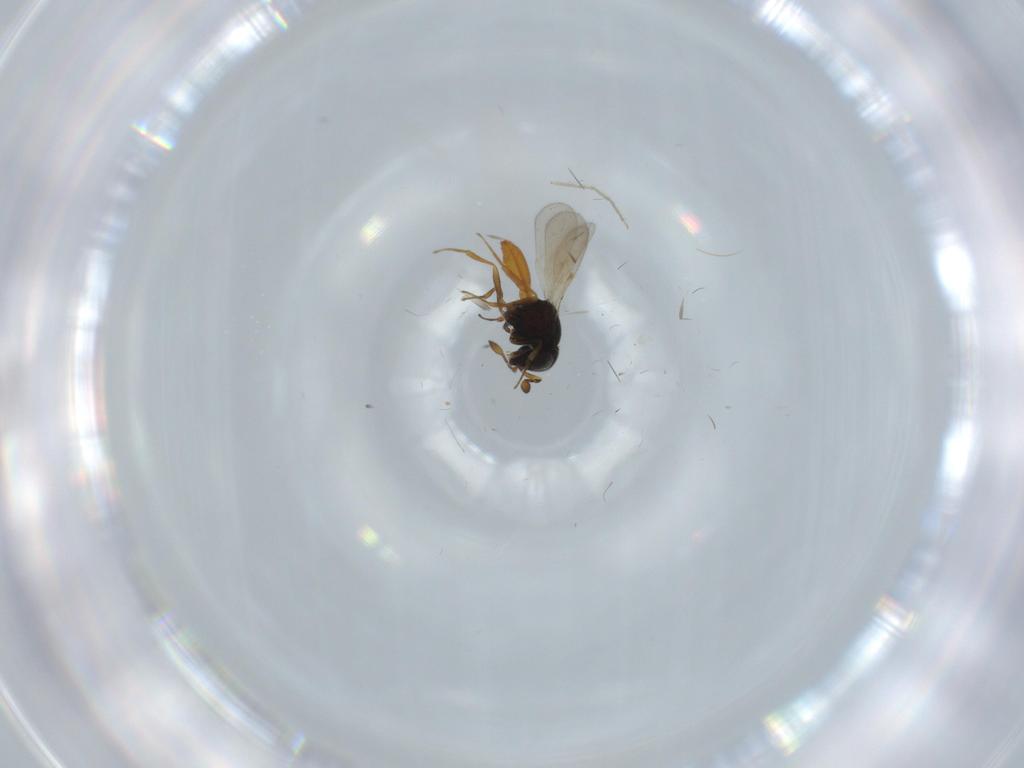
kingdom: Animalia
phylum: Arthropoda
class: Insecta
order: Hymenoptera
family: Scelionidae
